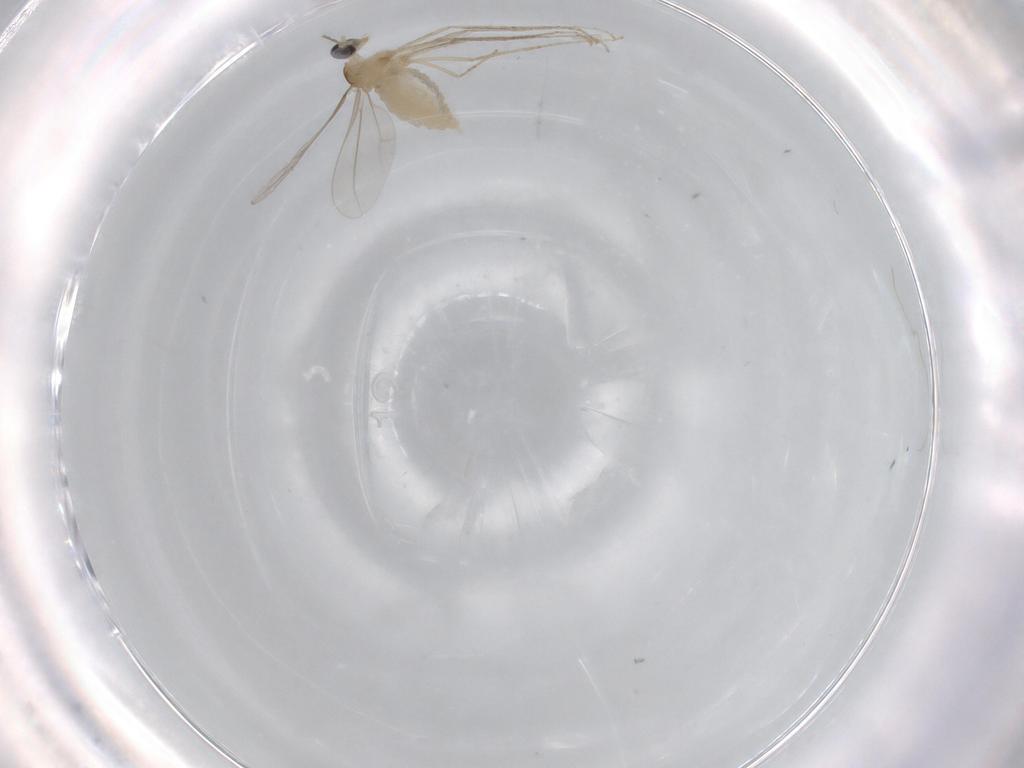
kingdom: Animalia
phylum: Arthropoda
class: Insecta
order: Diptera
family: Cecidomyiidae
